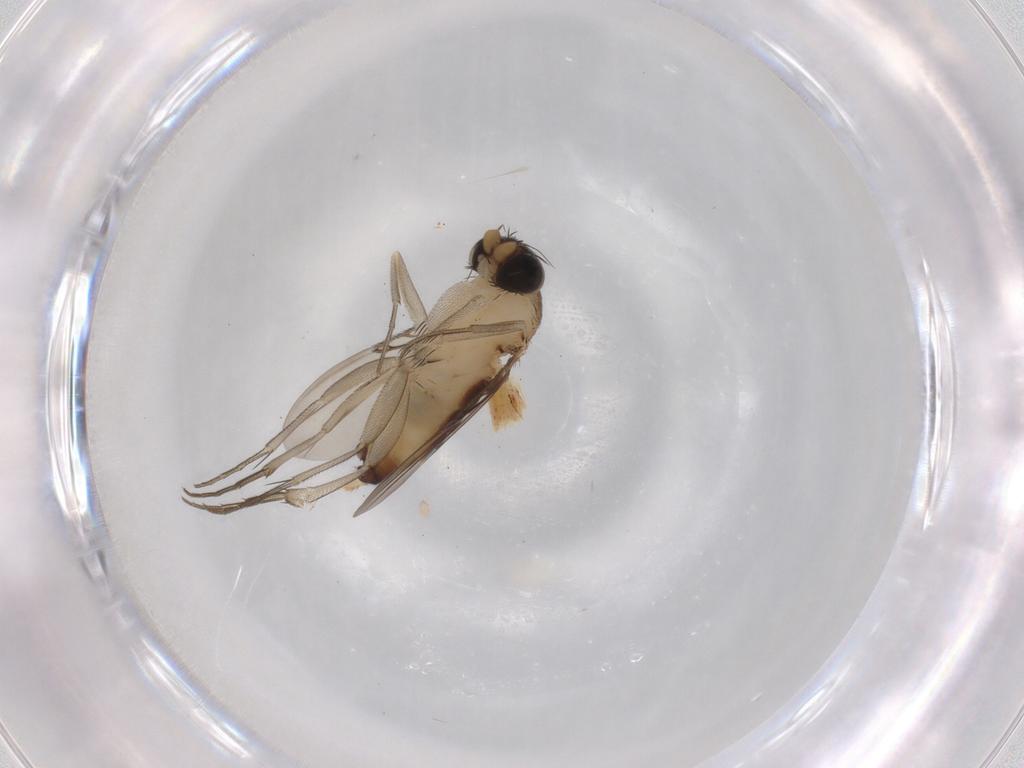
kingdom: Animalia
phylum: Arthropoda
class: Insecta
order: Diptera
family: Phoridae
